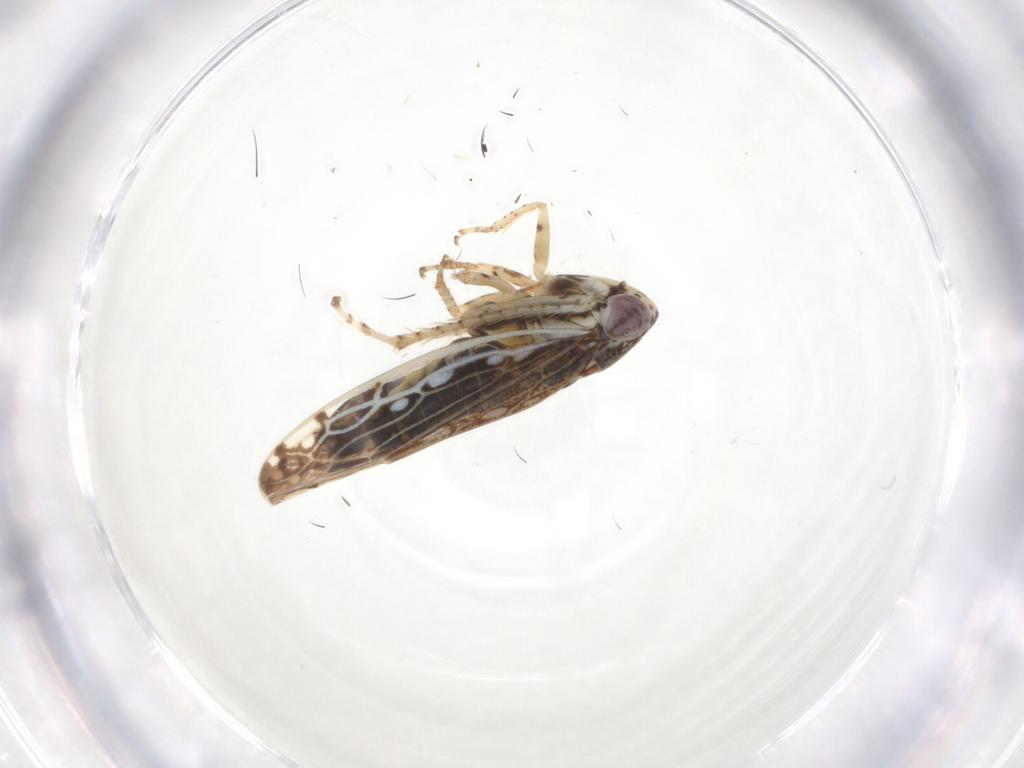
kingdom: Animalia
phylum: Arthropoda
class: Insecta
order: Hemiptera
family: Cicadellidae
